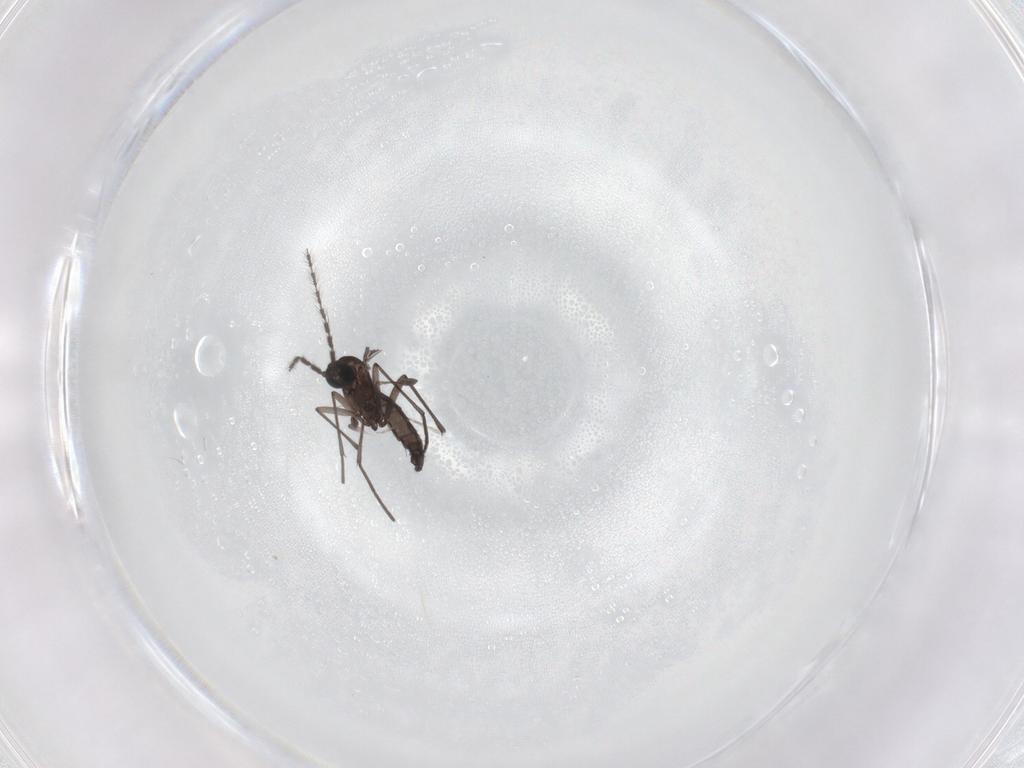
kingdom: Animalia
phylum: Arthropoda
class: Insecta
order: Diptera
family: Sciaridae
